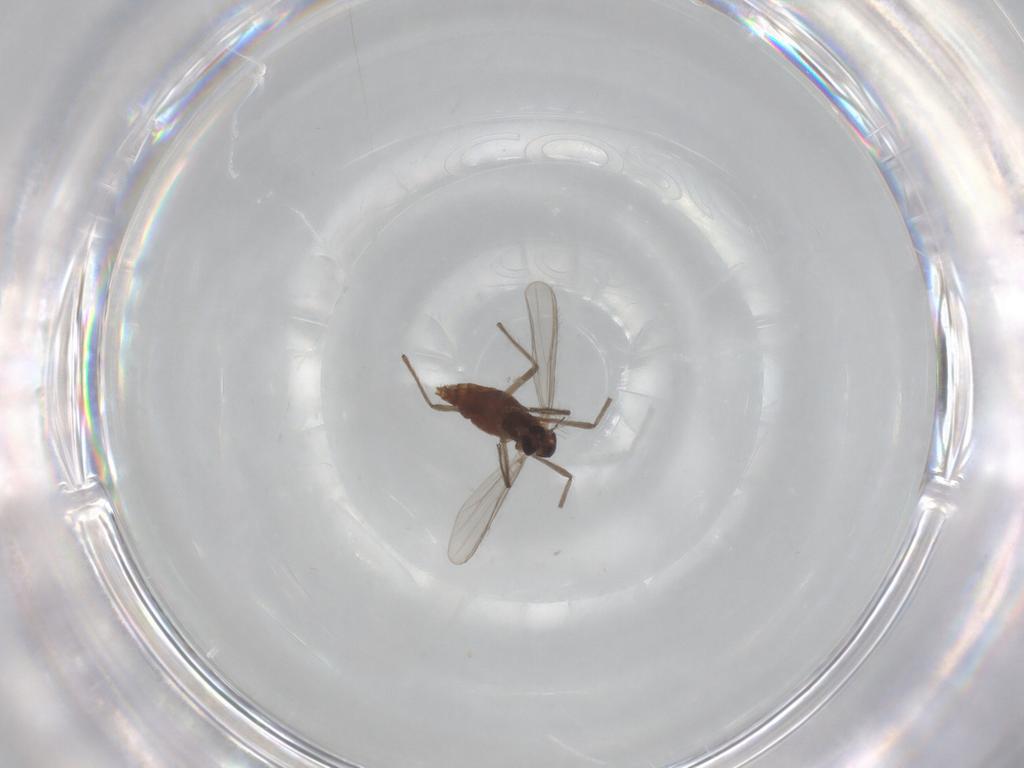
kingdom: Animalia
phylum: Arthropoda
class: Insecta
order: Diptera
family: Chironomidae
